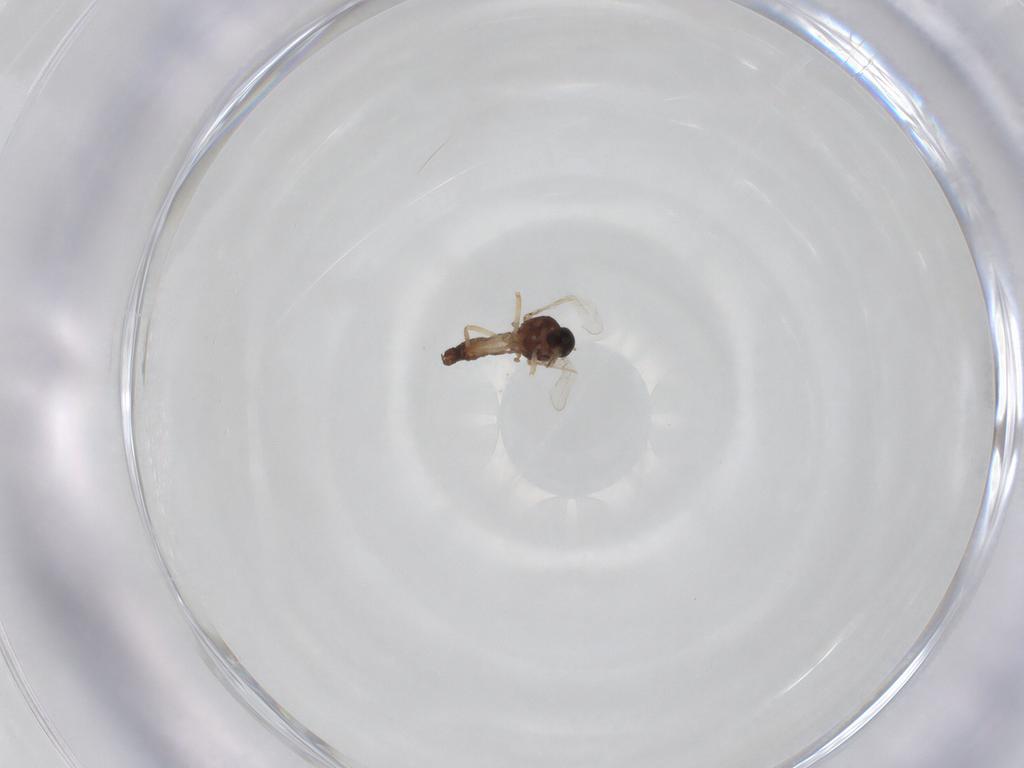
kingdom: Animalia
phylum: Arthropoda
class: Insecta
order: Diptera
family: Ceratopogonidae
